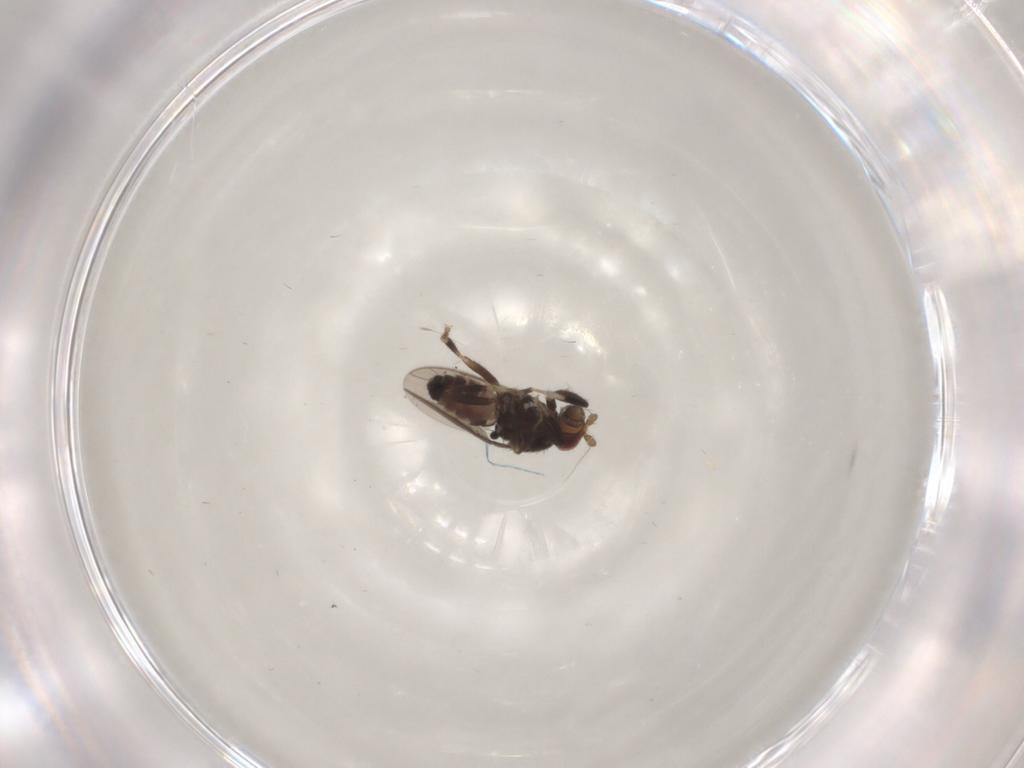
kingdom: Animalia
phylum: Arthropoda
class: Insecta
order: Diptera
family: Sphaeroceridae
